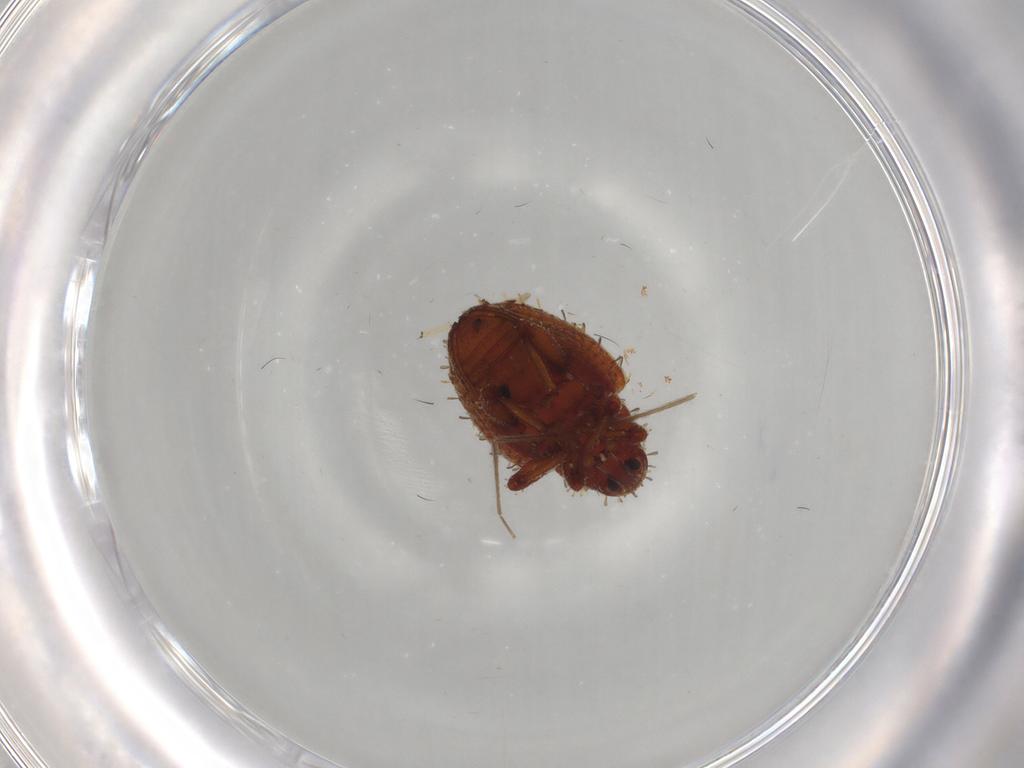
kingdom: Animalia
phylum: Arthropoda
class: Insecta
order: Coleoptera
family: Curculionidae
